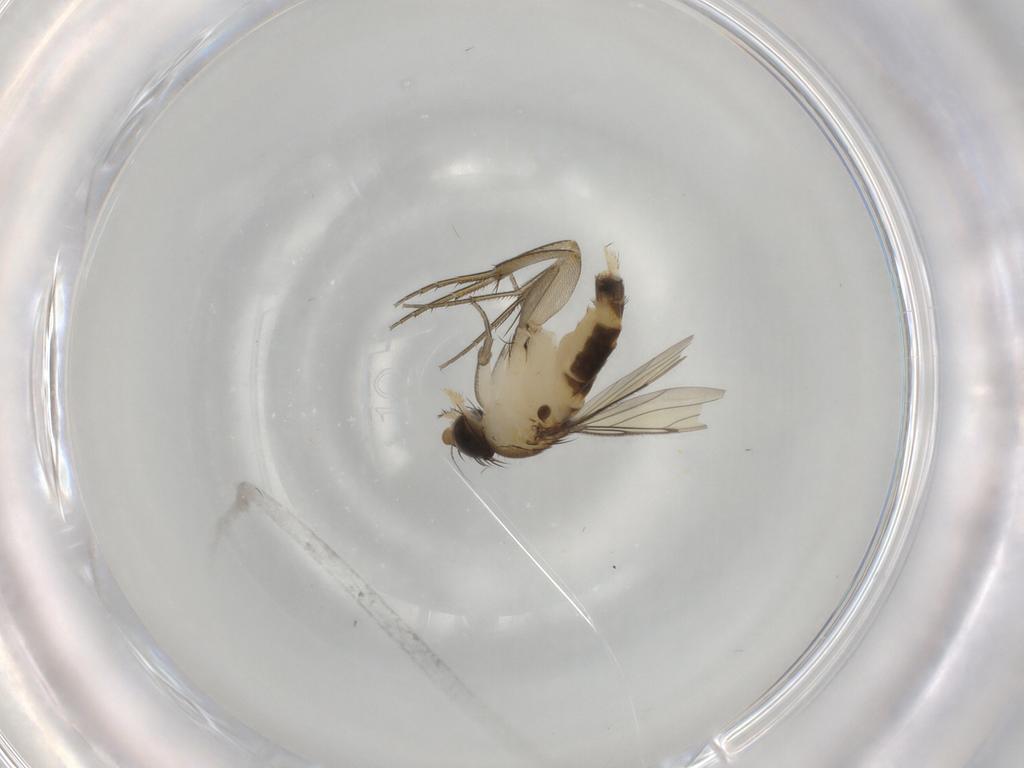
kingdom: Animalia
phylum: Arthropoda
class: Insecta
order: Diptera
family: Phoridae
